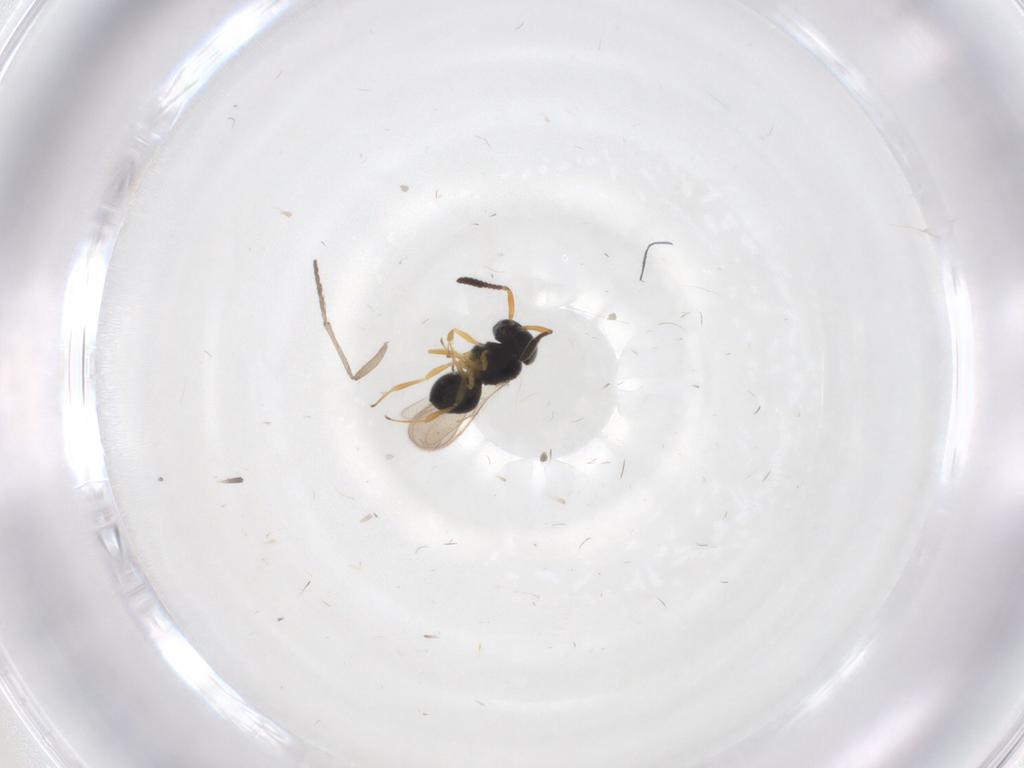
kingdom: Animalia
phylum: Arthropoda
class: Insecta
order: Hymenoptera
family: Scelionidae
